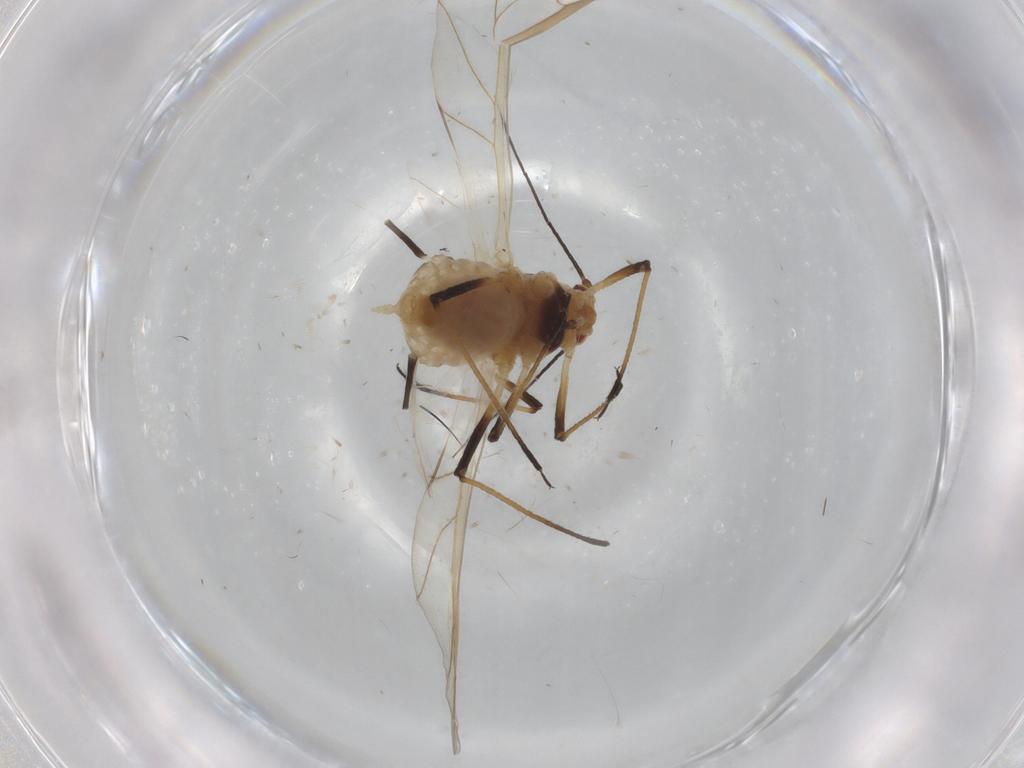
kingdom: Animalia
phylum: Arthropoda
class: Insecta
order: Hemiptera
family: Aphididae
